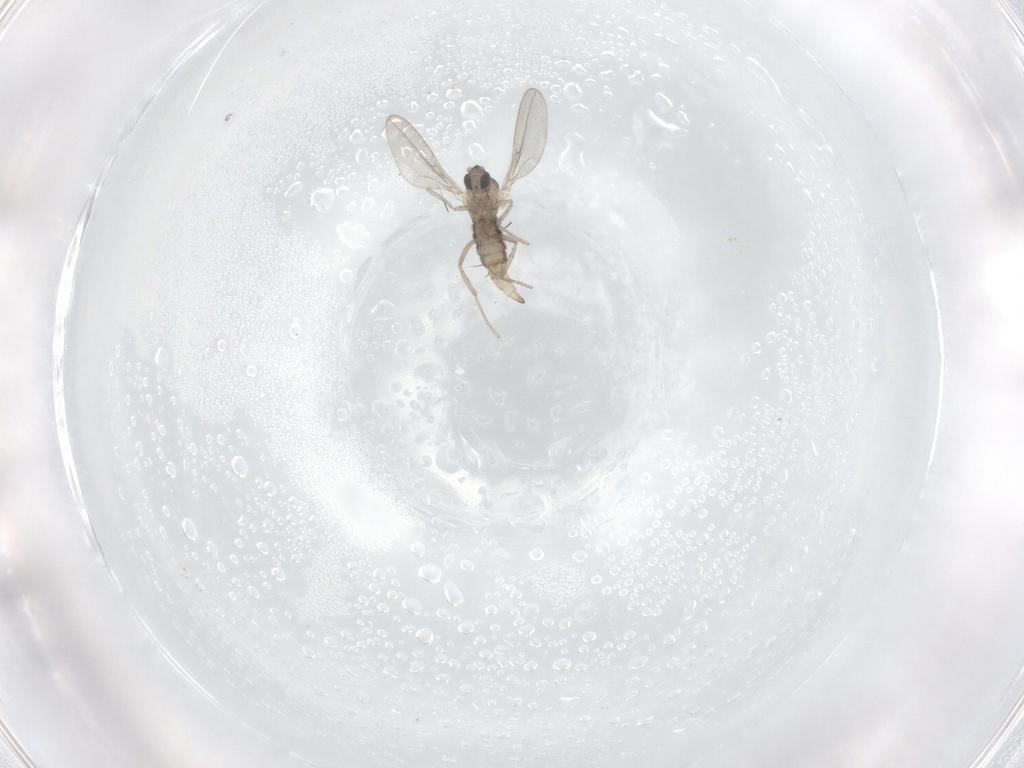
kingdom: Animalia
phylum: Arthropoda
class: Insecta
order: Diptera
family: Cecidomyiidae
